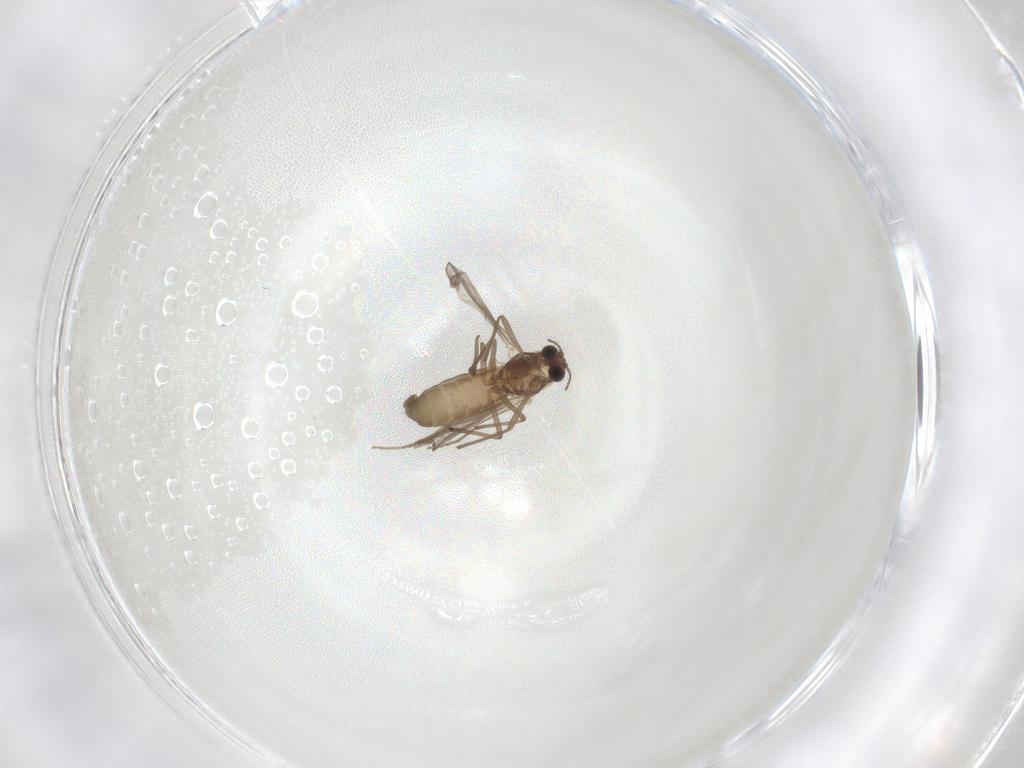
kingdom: Animalia
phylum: Arthropoda
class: Insecta
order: Diptera
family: Chironomidae
